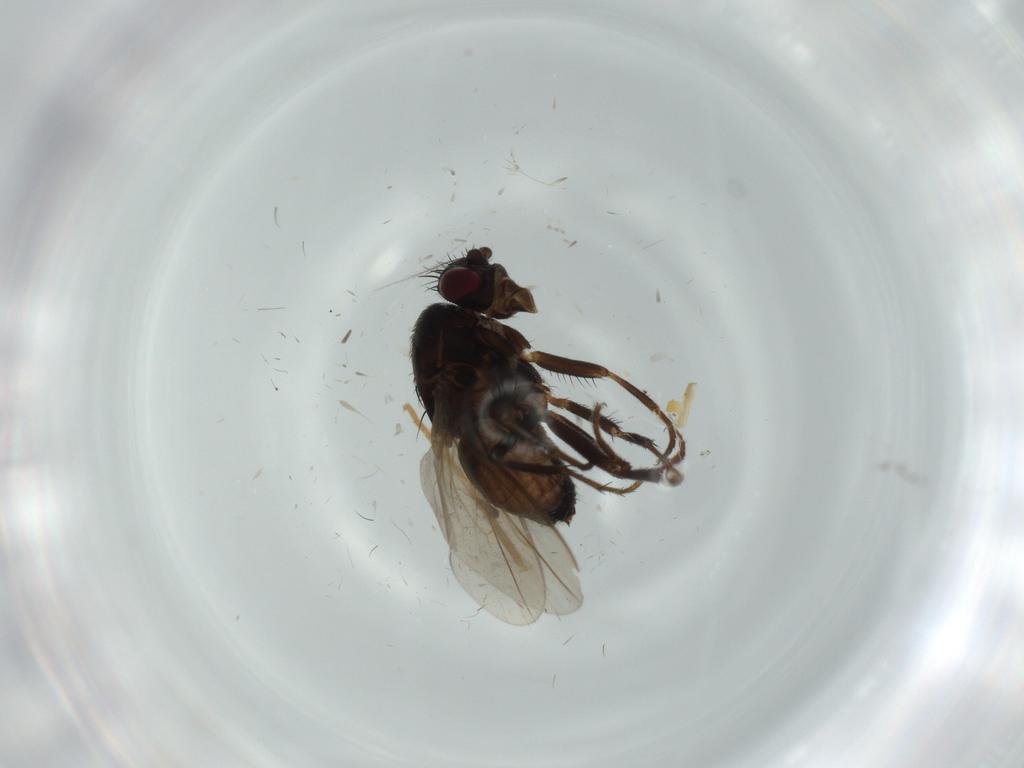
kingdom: Animalia
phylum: Arthropoda
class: Insecta
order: Diptera
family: Sphaeroceridae
